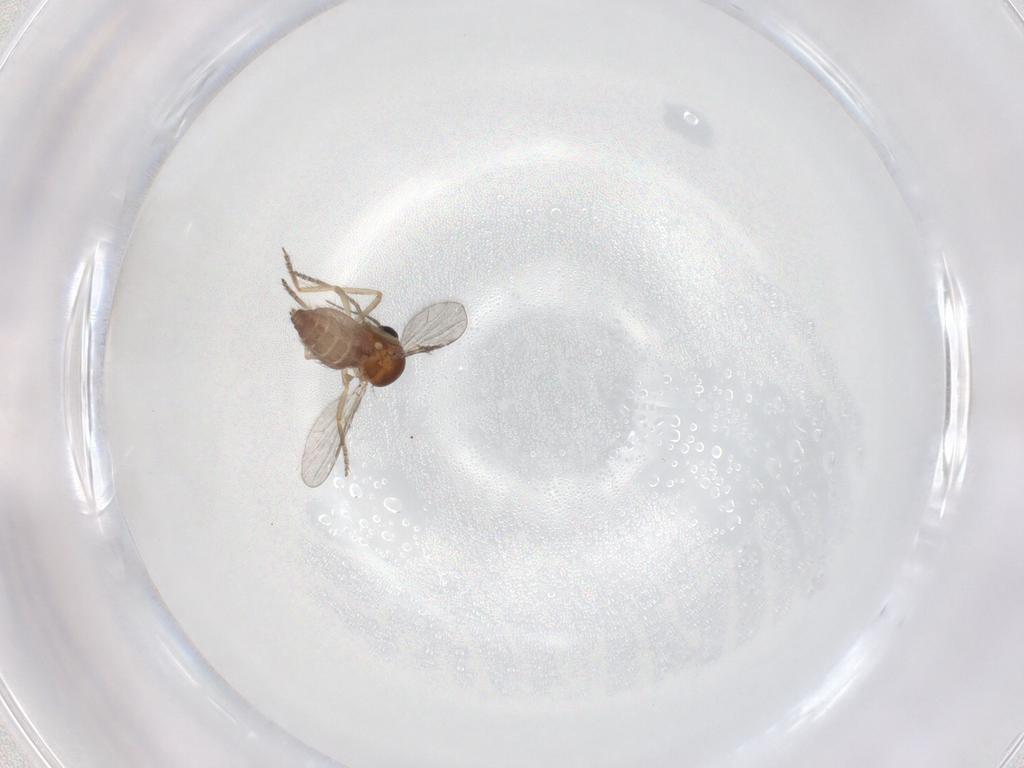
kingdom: Animalia
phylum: Arthropoda
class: Insecta
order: Diptera
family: Ceratopogonidae
